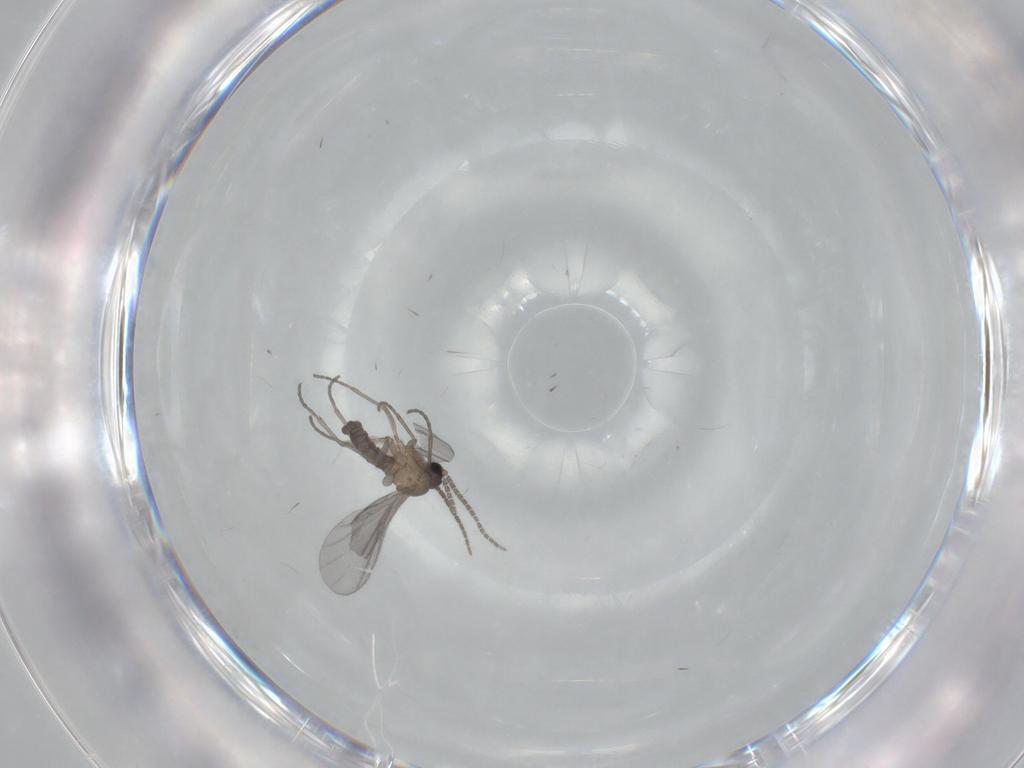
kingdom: Animalia
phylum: Arthropoda
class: Insecta
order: Diptera
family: Sciaridae
